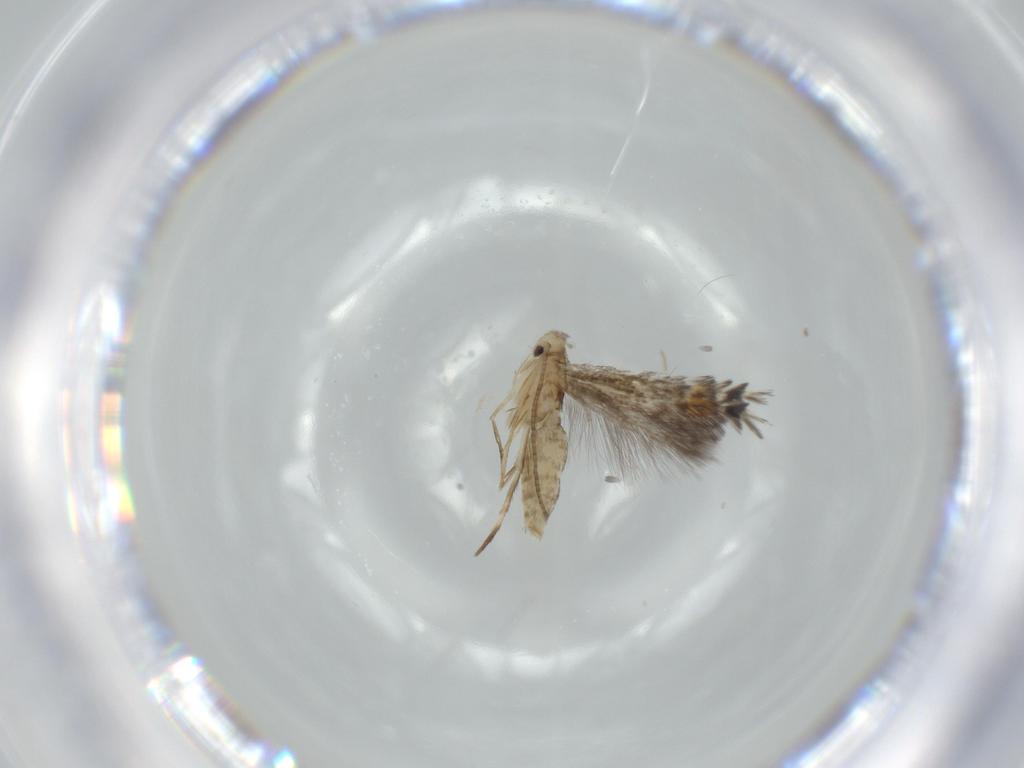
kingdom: Animalia
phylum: Arthropoda
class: Insecta
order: Lepidoptera
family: Gracillariidae
